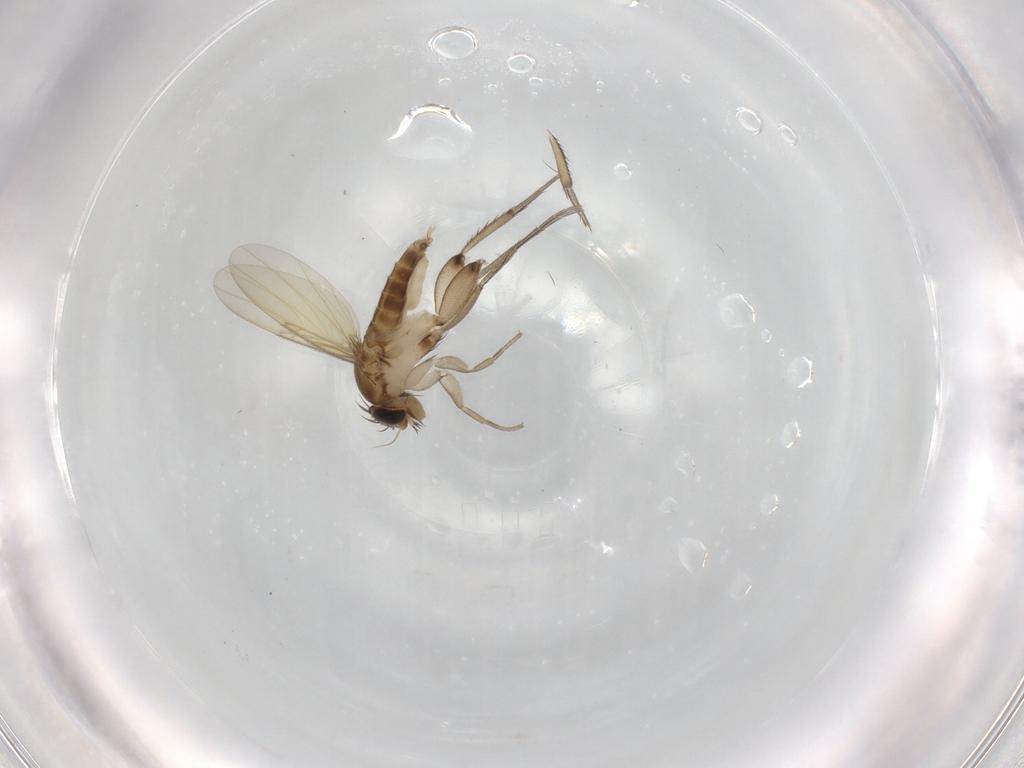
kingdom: Animalia
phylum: Arthropoda
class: Insecta
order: Diptera
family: Phoridae
